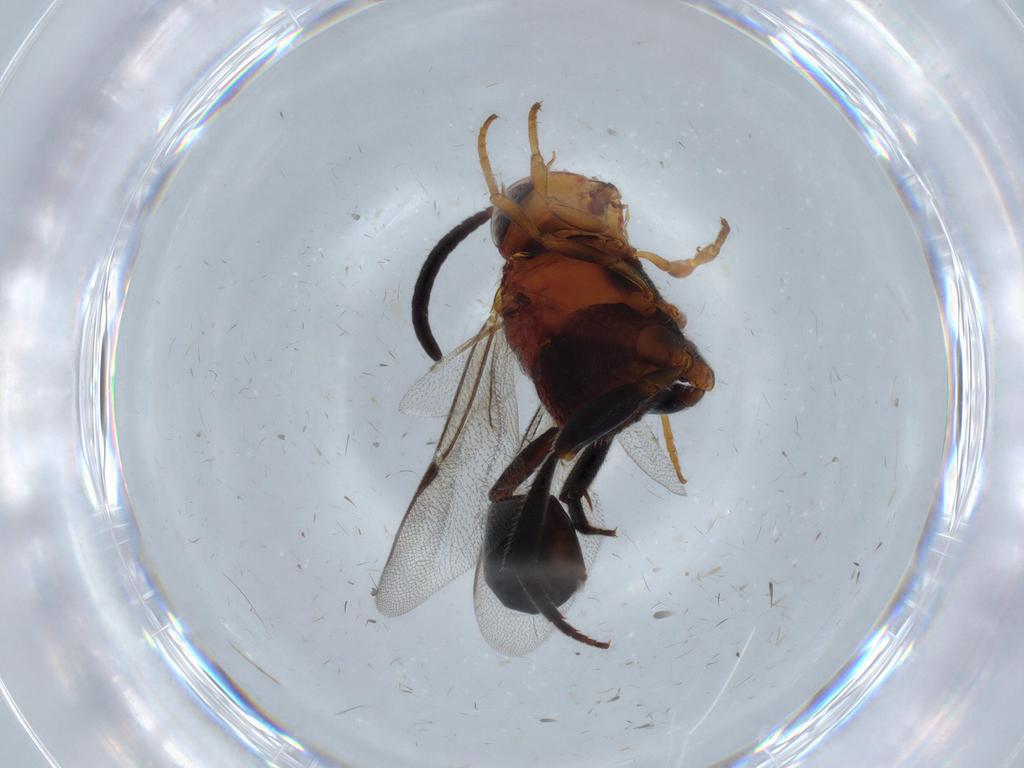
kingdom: Animalia
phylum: Arthropoda
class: Insecta
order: Hymenoptera
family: Evaniidae
